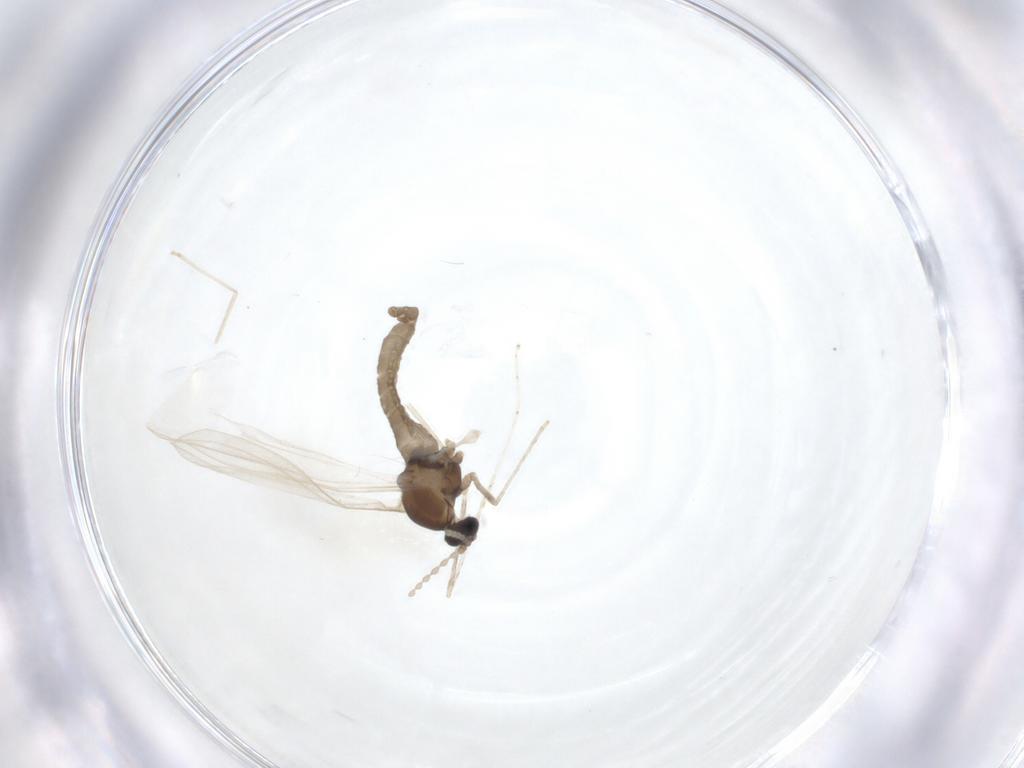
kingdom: Animalia
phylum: Arthropoda
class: Insecta
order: Diptera
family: Cecidomyiidae
